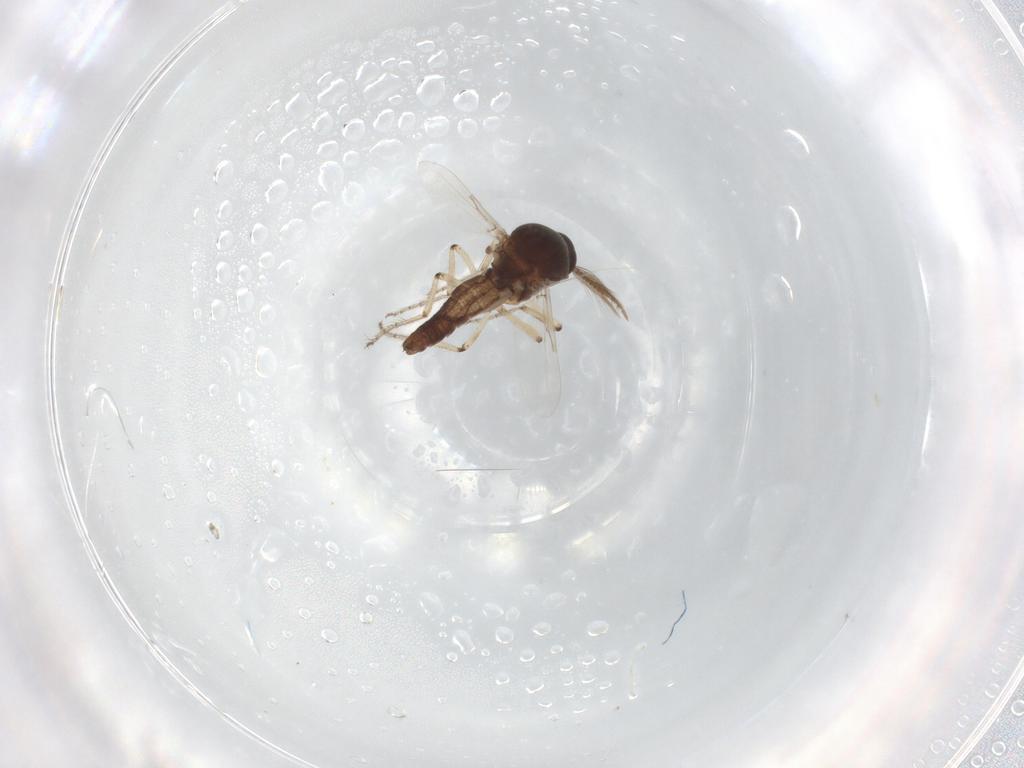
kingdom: Animalia
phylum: Arthropoda
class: Insecta
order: Diptera
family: Ceratopogonidae
